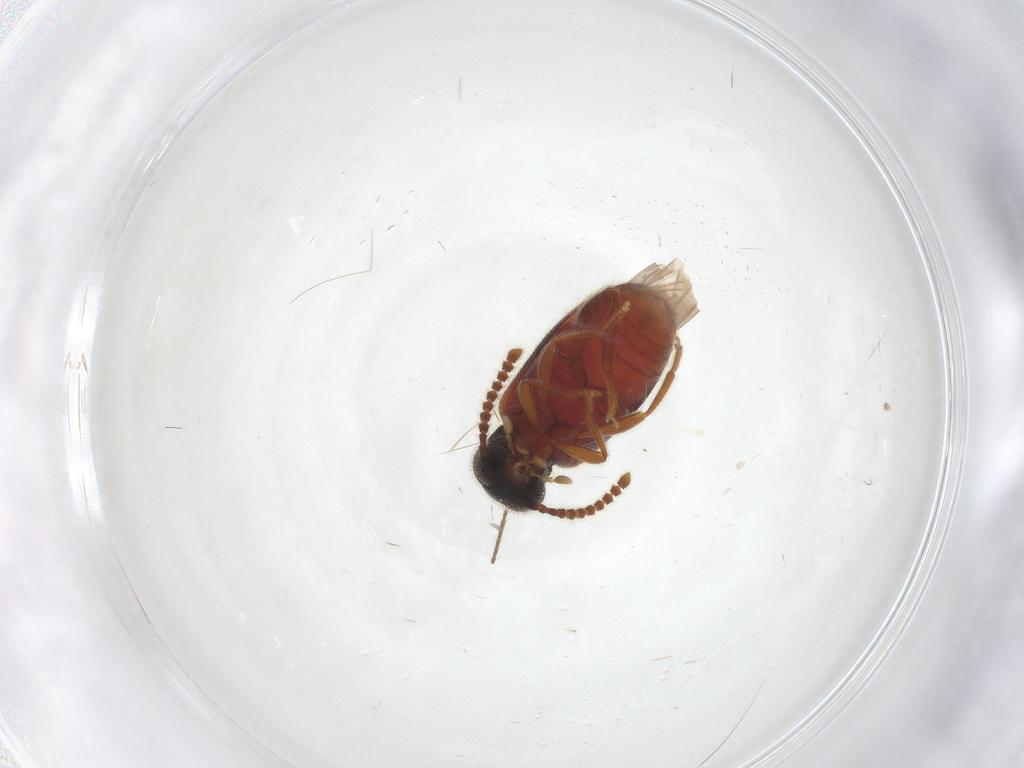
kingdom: Animalia
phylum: Arthropoda
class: Insecta
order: Coleoptera
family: Aderidae
